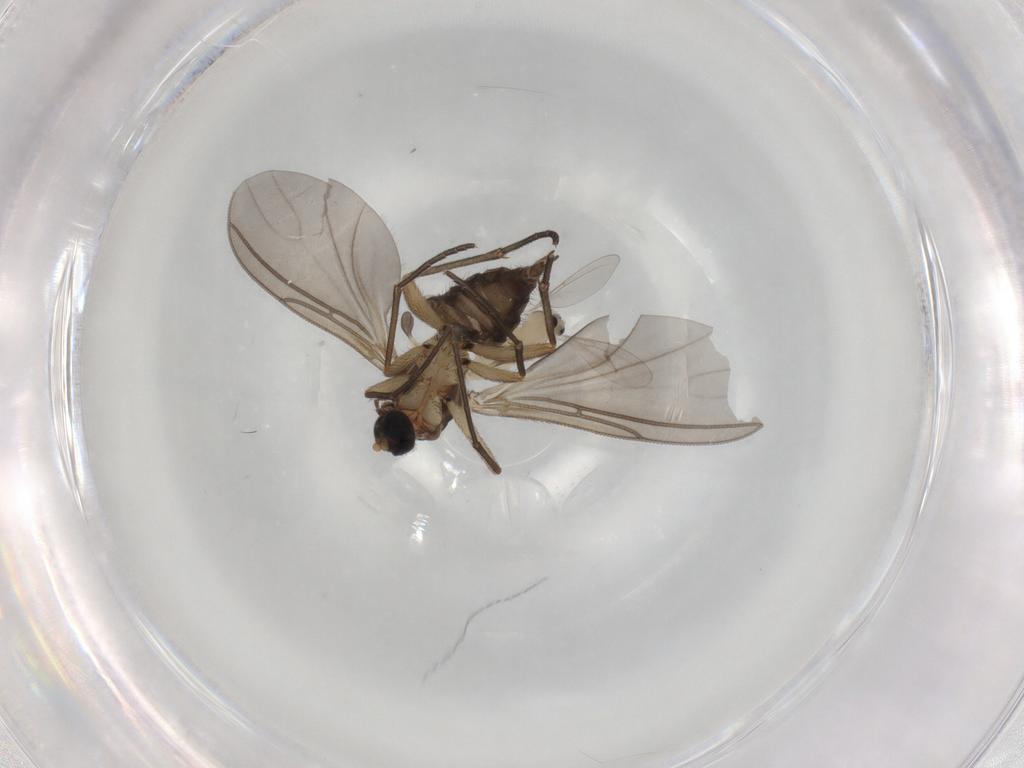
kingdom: Animalia
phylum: Arthropoda
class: Insecta
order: Diptera
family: Cecidomyiidae
